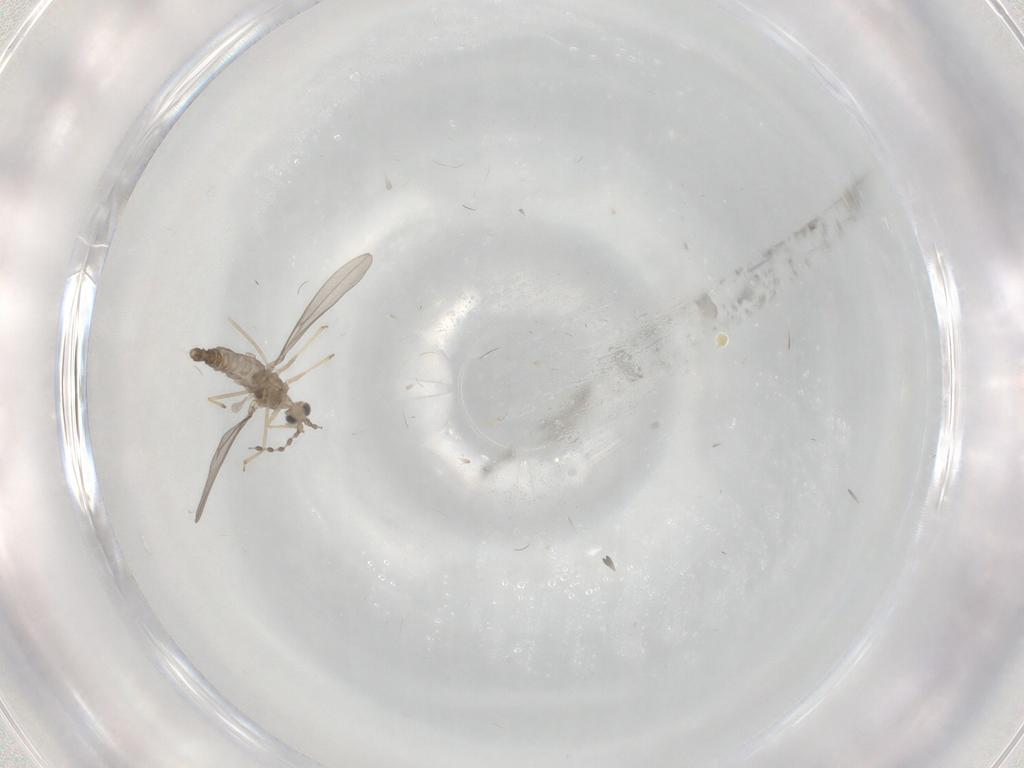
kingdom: Animalia
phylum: Arthropoda
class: Insecta
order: Diptera
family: Cecidomyiidae
